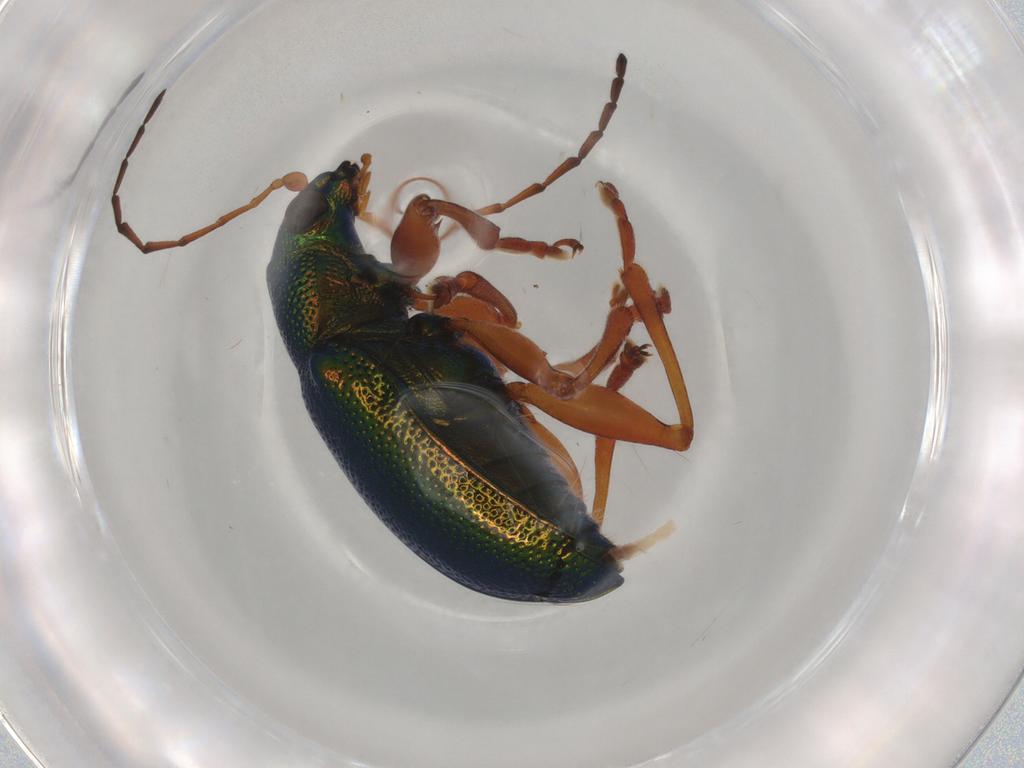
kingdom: Animalia
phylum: Arthropoda
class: Insecta
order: Coleoptera
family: Chrysomelidae
